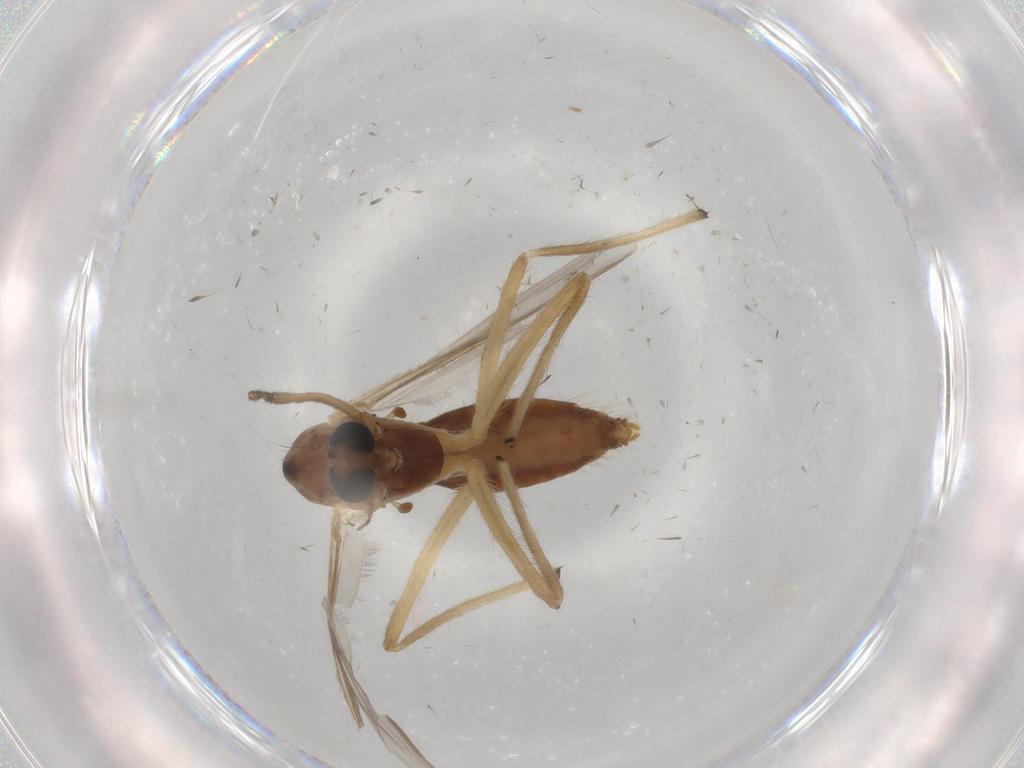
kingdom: Animalia
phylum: Arthropoda
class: Insecta
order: Diptera
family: Chironomidae
